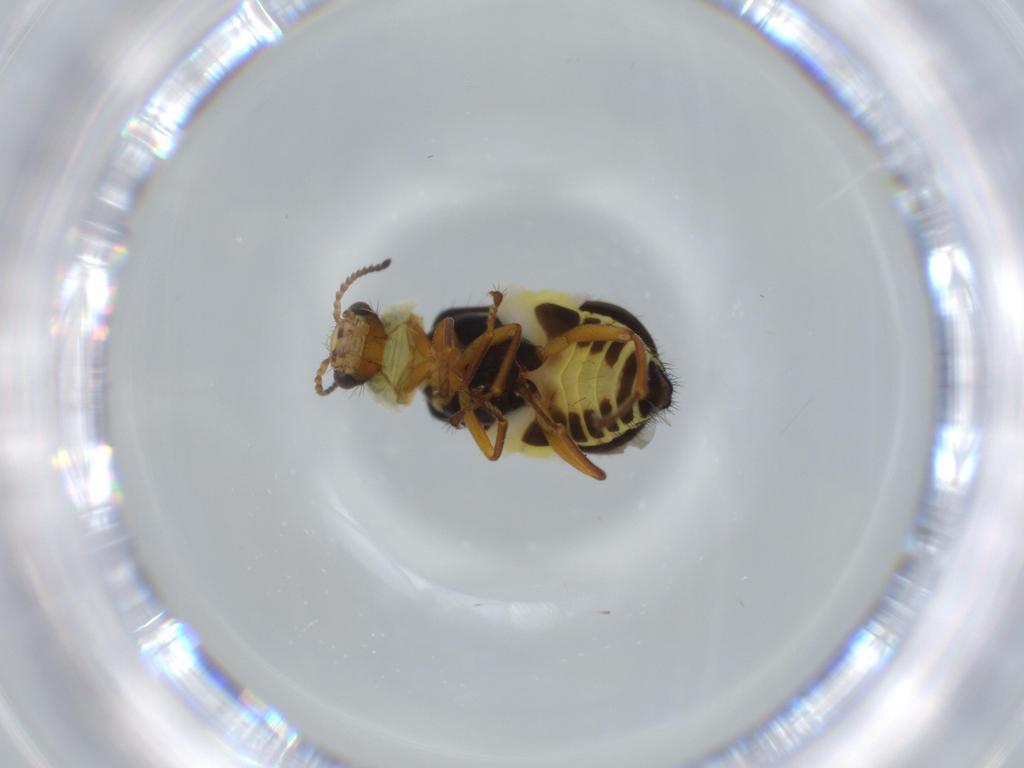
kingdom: Animalia
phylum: Arthropoda
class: Insecta
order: Coleoptera
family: Melyridae
